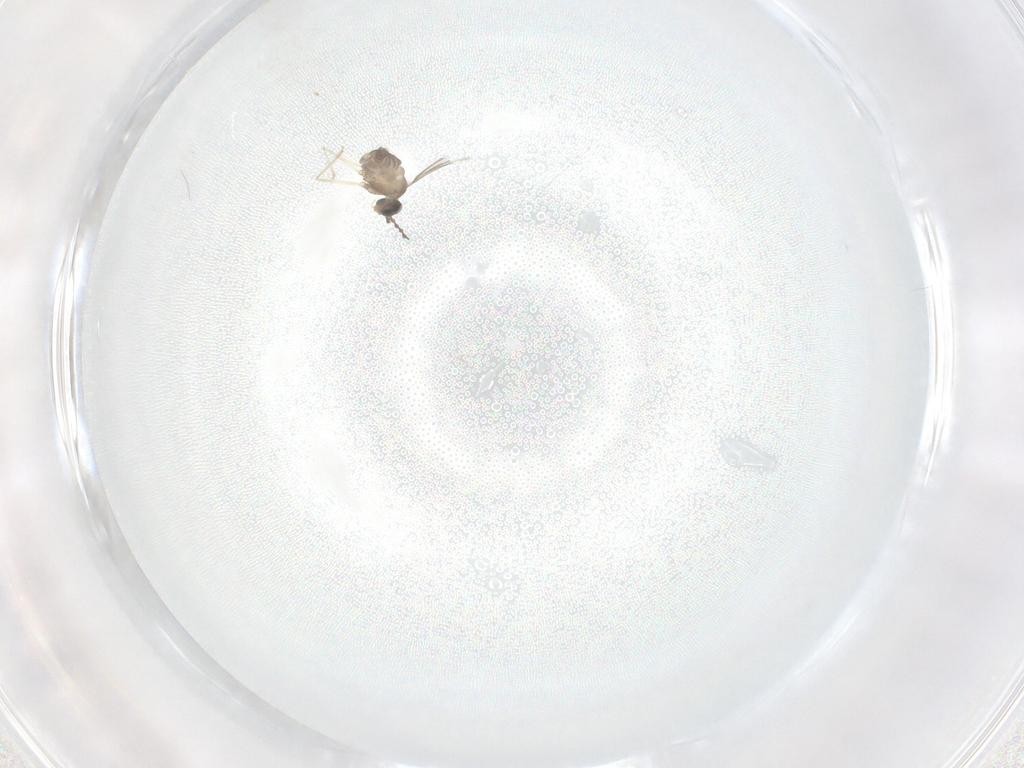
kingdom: Animalia
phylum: Arthropoda
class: Insecta
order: Diptera
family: Cecidomyiidae
